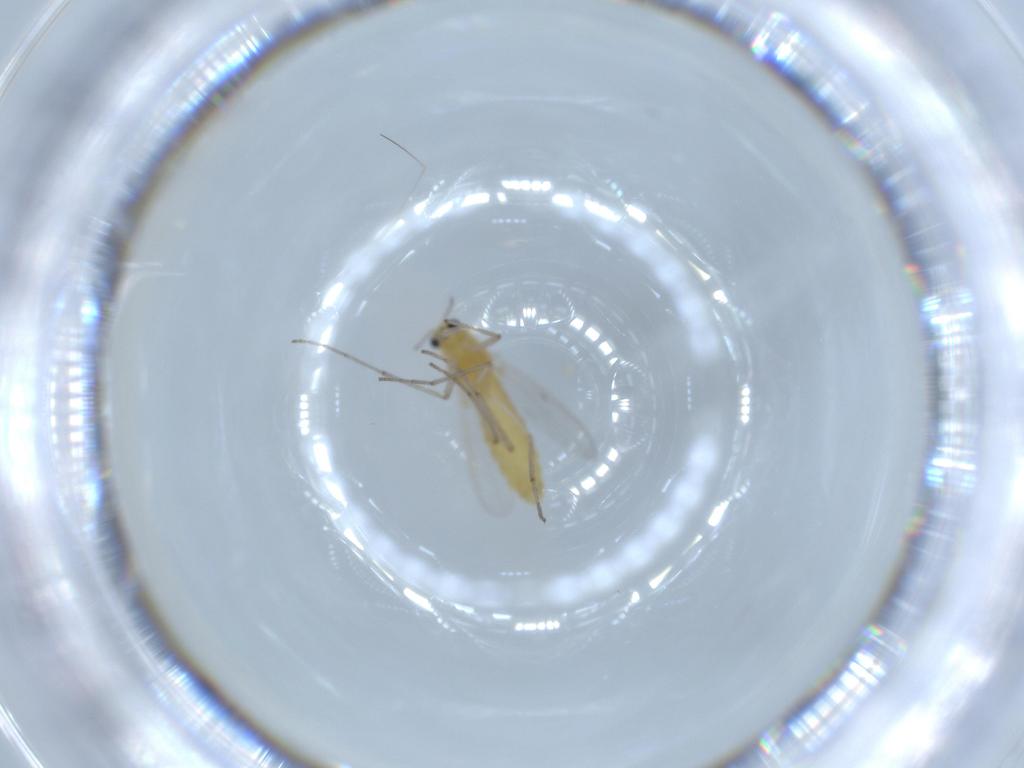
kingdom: Animalia
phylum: Arthropoda
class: Insecta
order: Diptera
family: Chironomidae
